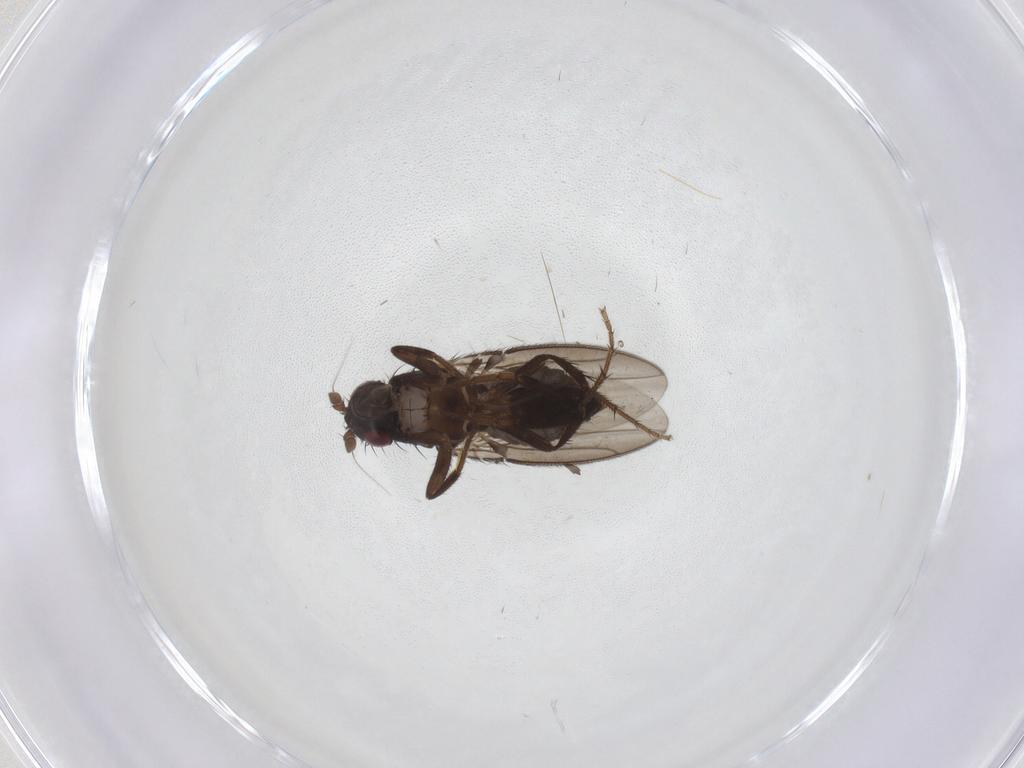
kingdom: Animalia
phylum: Arthropoda
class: Insecta
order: Diptera
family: Sphaeroceridae
